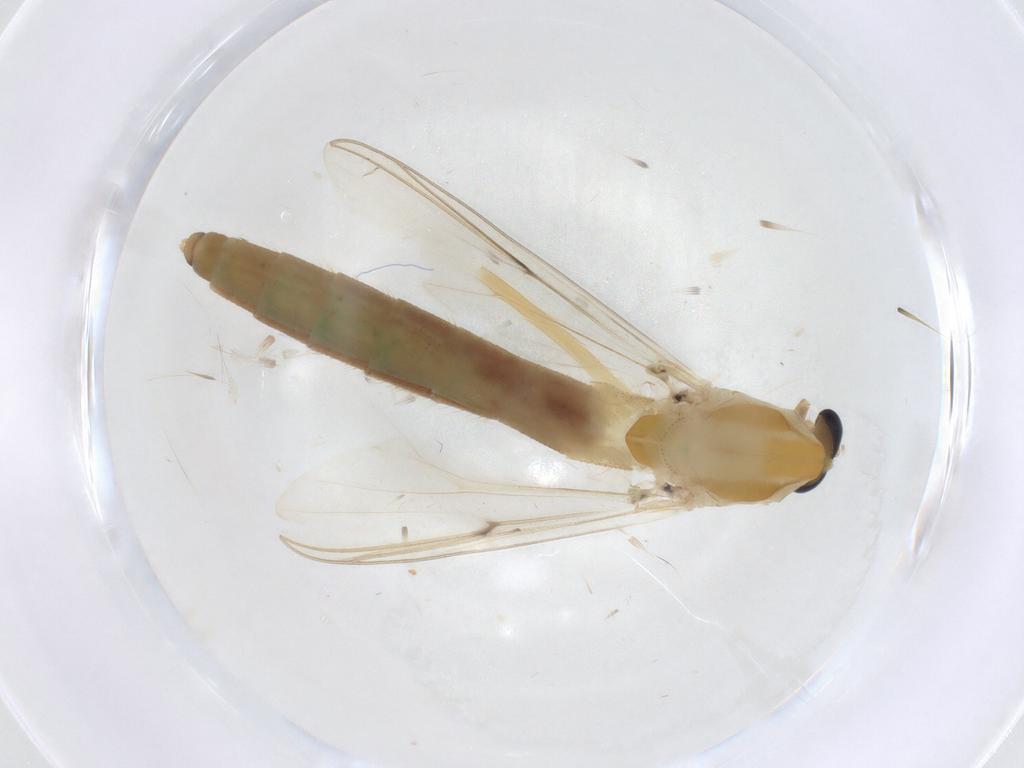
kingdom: Animalia
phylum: Arthropoda
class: Insecta
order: Diptera
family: Chironomidae
